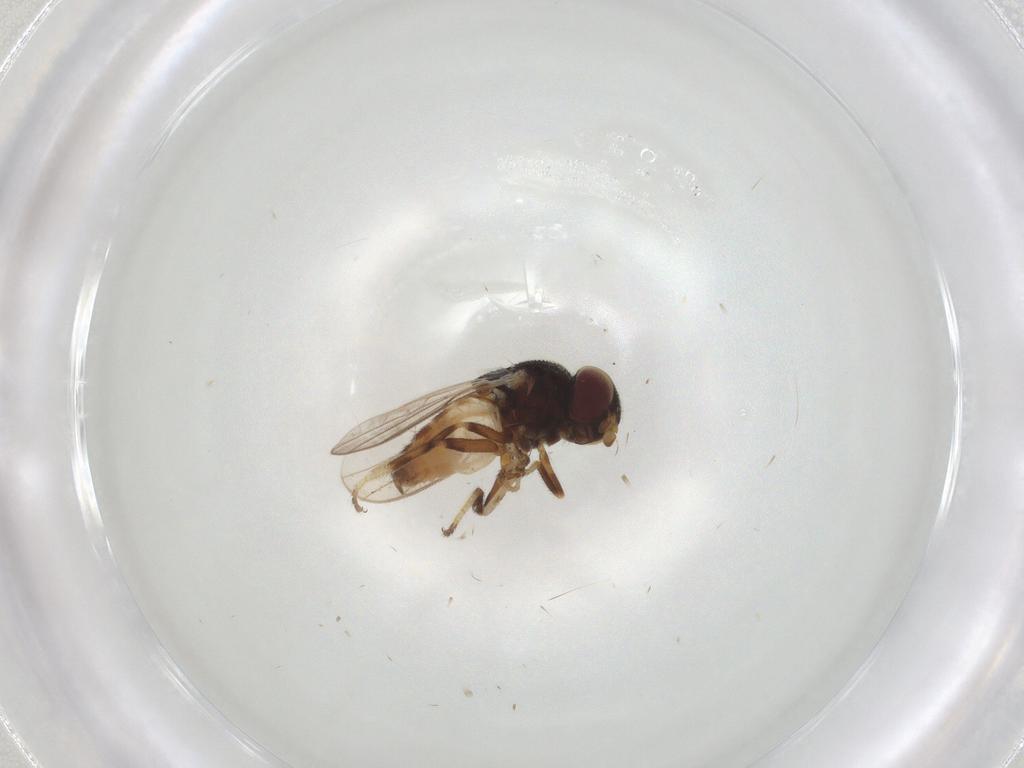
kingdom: Animalia
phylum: Arthropoda
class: Insecta
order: Diptera
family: Chloropidae
